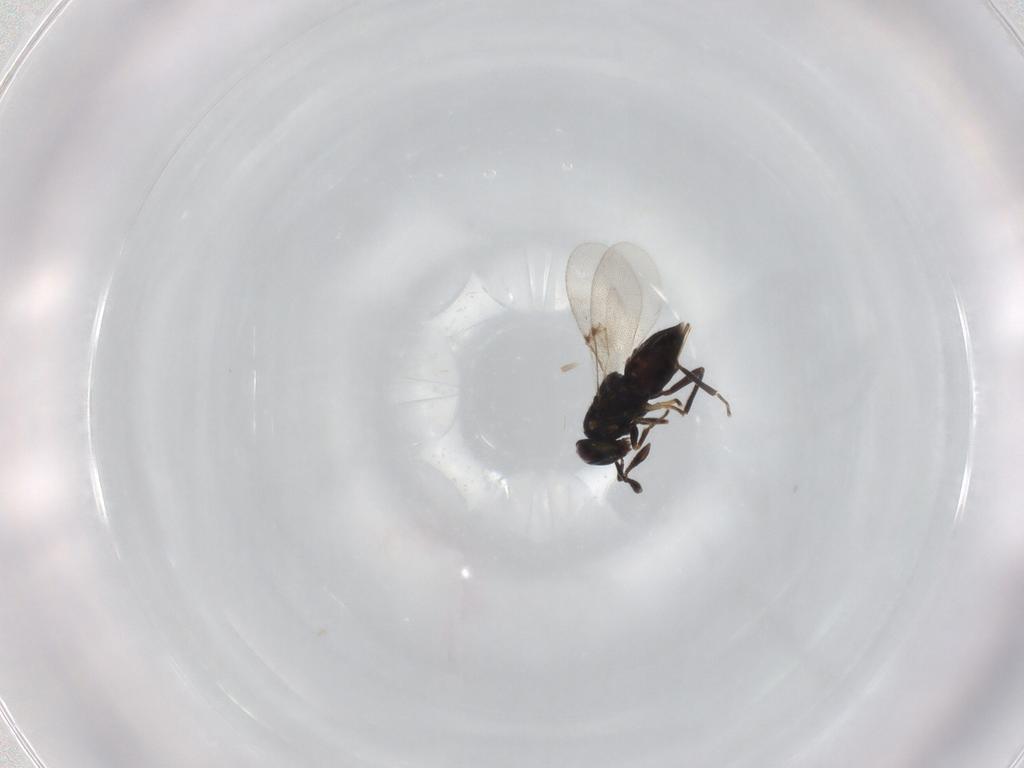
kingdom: Animalia
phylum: Arthropoda
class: Insecta
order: Hymenoptera
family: Encyrtidae
